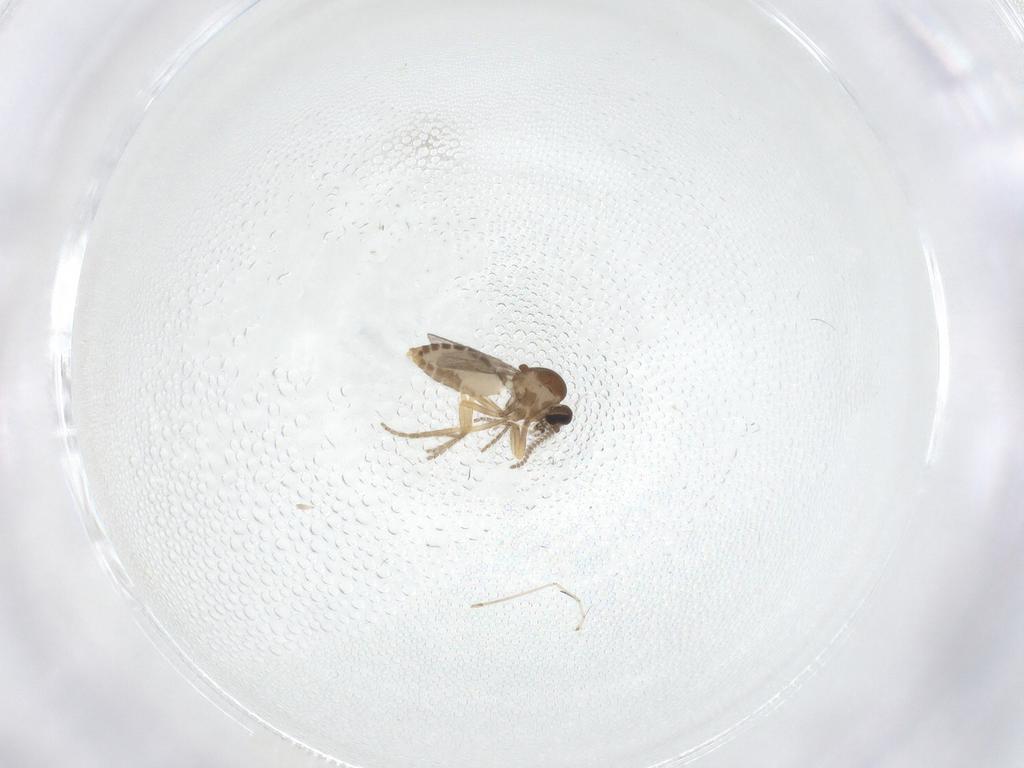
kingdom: Animalia
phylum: Arthropoda
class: Insecta
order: Diptera
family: Ceratopogonidae
